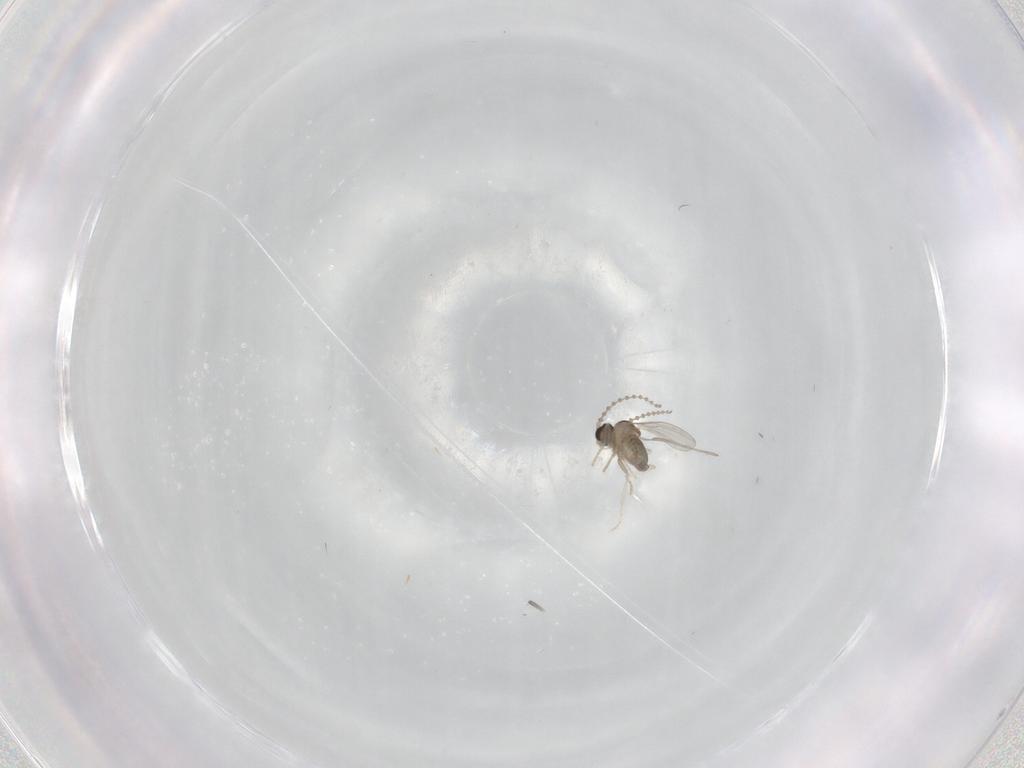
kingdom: Animalia
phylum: Arthropoda
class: Insecta
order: Diptera
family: Cecidomyiidae
